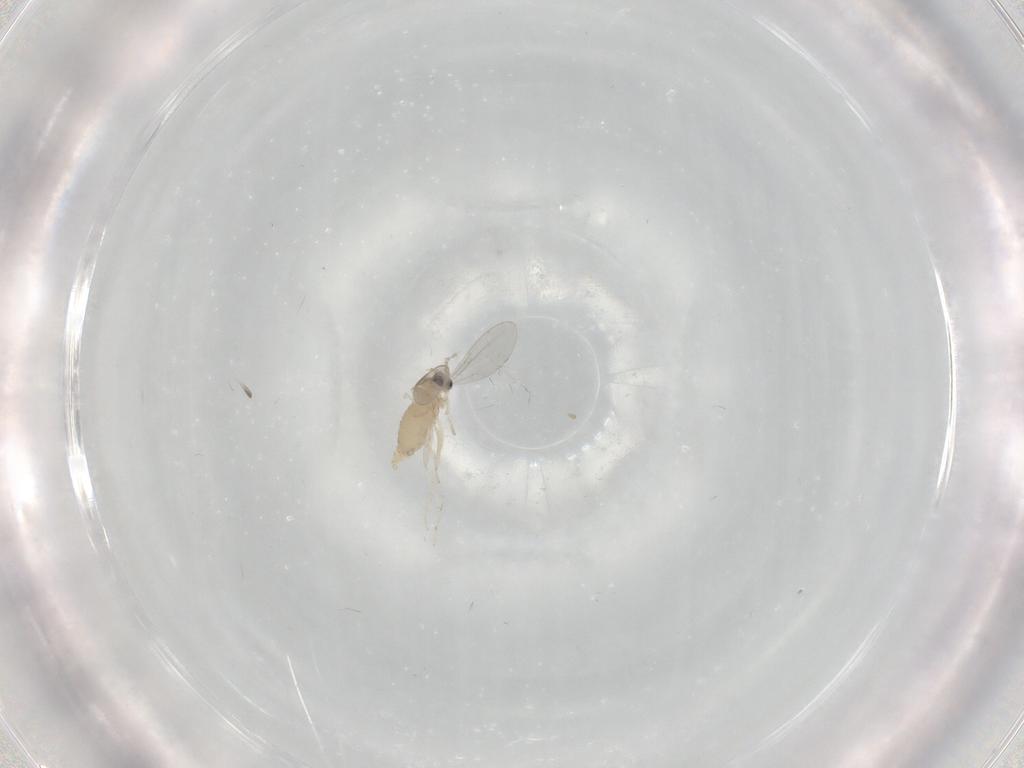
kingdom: Animalia
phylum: Arthropoda
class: Insecta
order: Diptera
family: Cecidomyiidae
